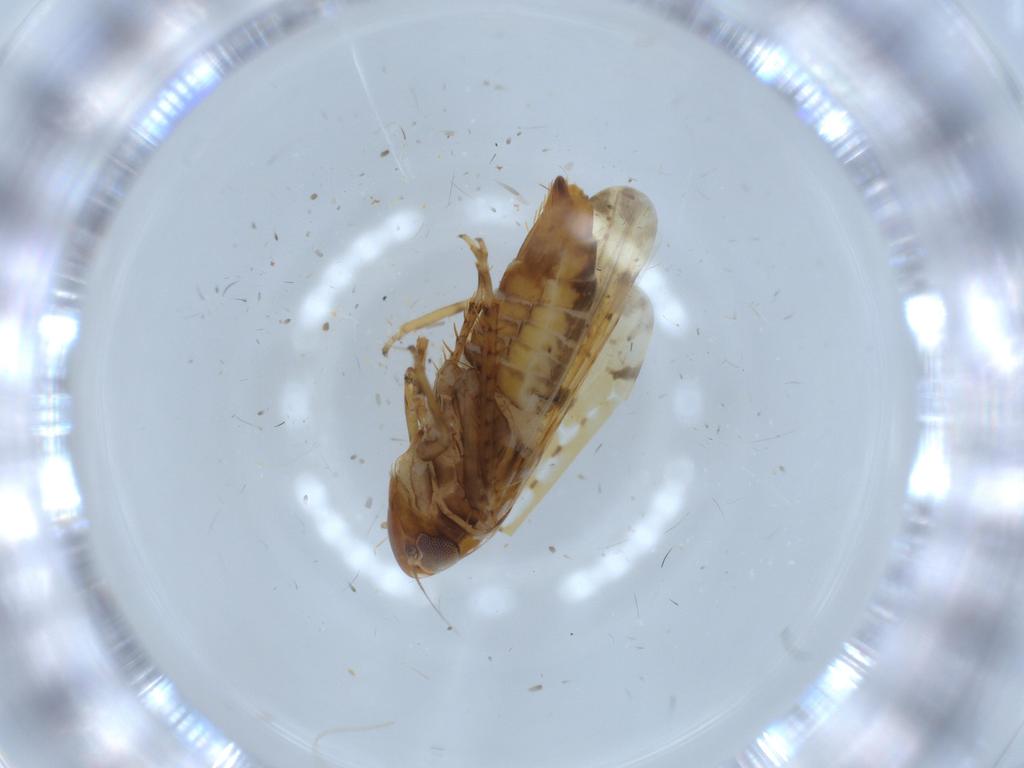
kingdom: Animalia
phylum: Arthropoda
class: Insecta
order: Hemiptera
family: Cicadellidae
